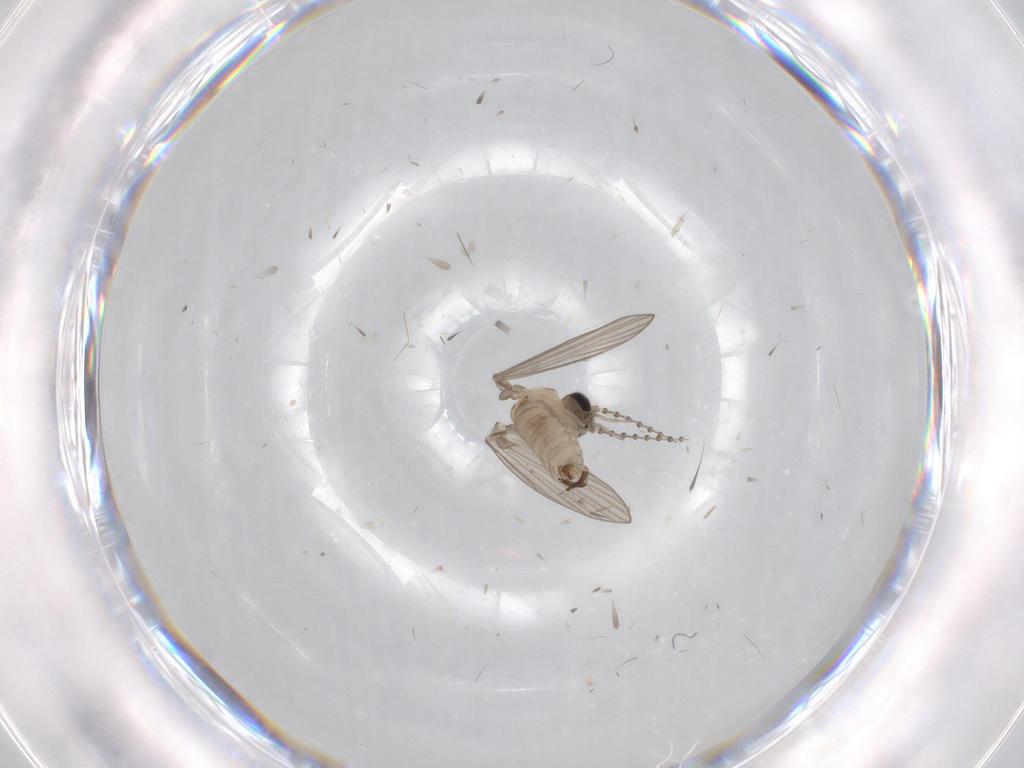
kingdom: Animalia
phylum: Arthropoda
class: Insecta
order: Diptera
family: Psychodidae
